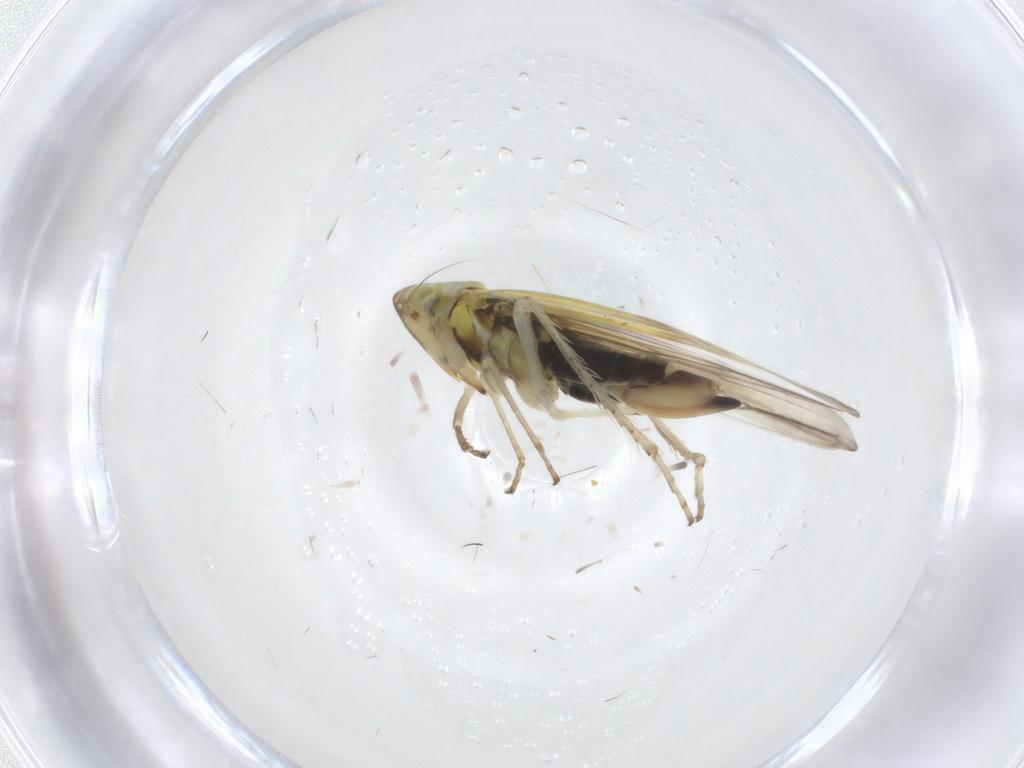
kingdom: Animalia
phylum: Arthropoda
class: Insecta
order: Hemiptera
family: Cicadellidae
